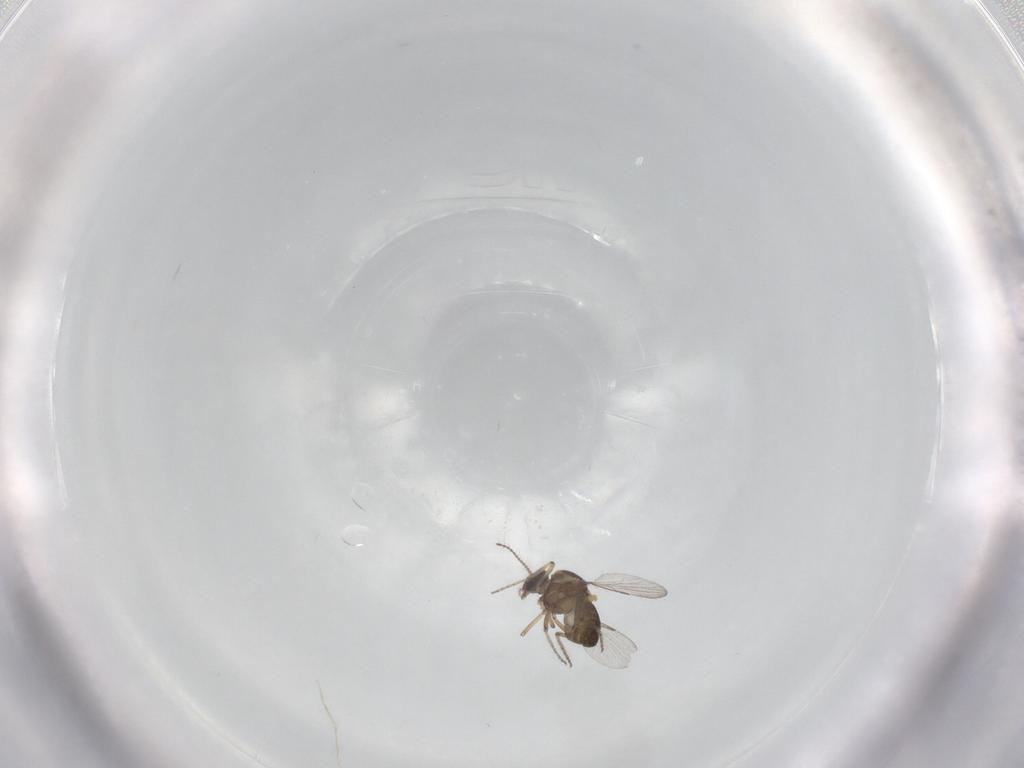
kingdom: Animalia
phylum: Arthropoda
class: Insecta
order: Diptera
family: Ceratopogonidae
